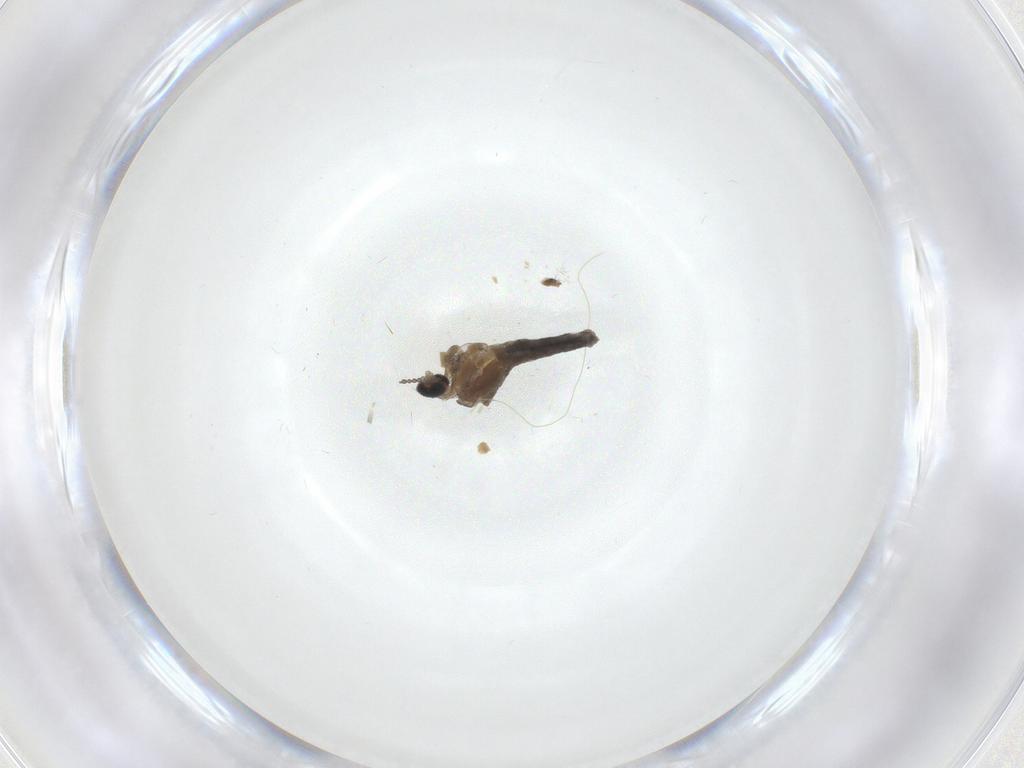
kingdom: Animalia
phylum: Arthropoda
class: Insecta
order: Diptera
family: Cecidomyiidae
